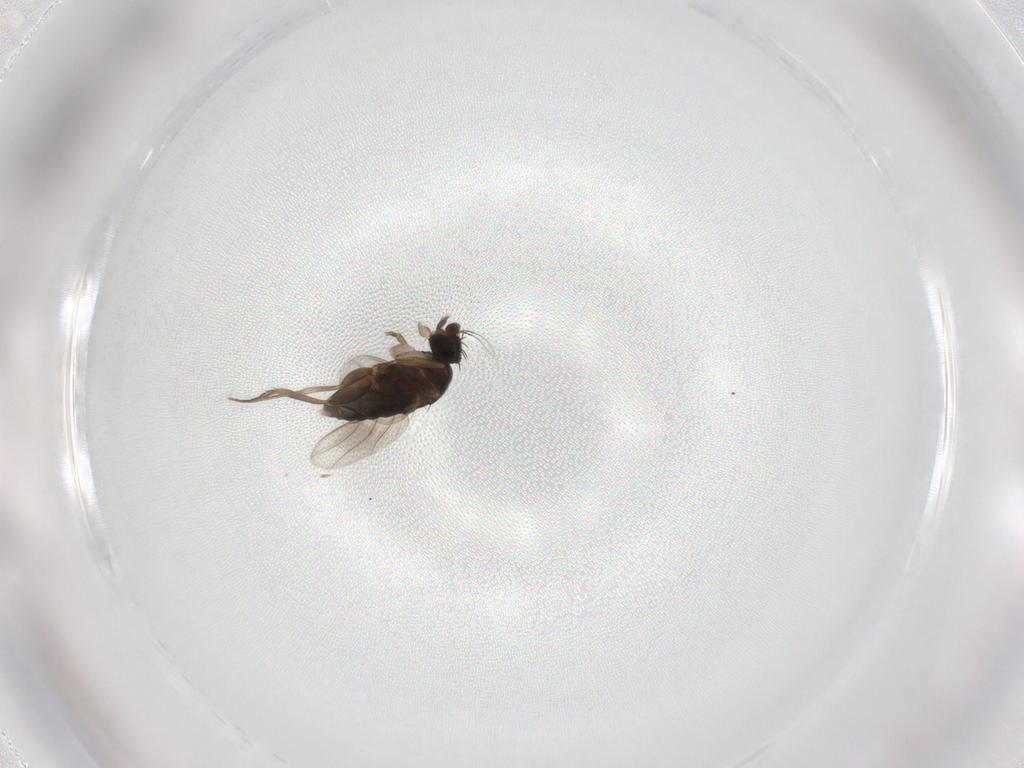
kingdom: Animalia
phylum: Arthropoda
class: Insecta
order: Diptera
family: Phoridae
